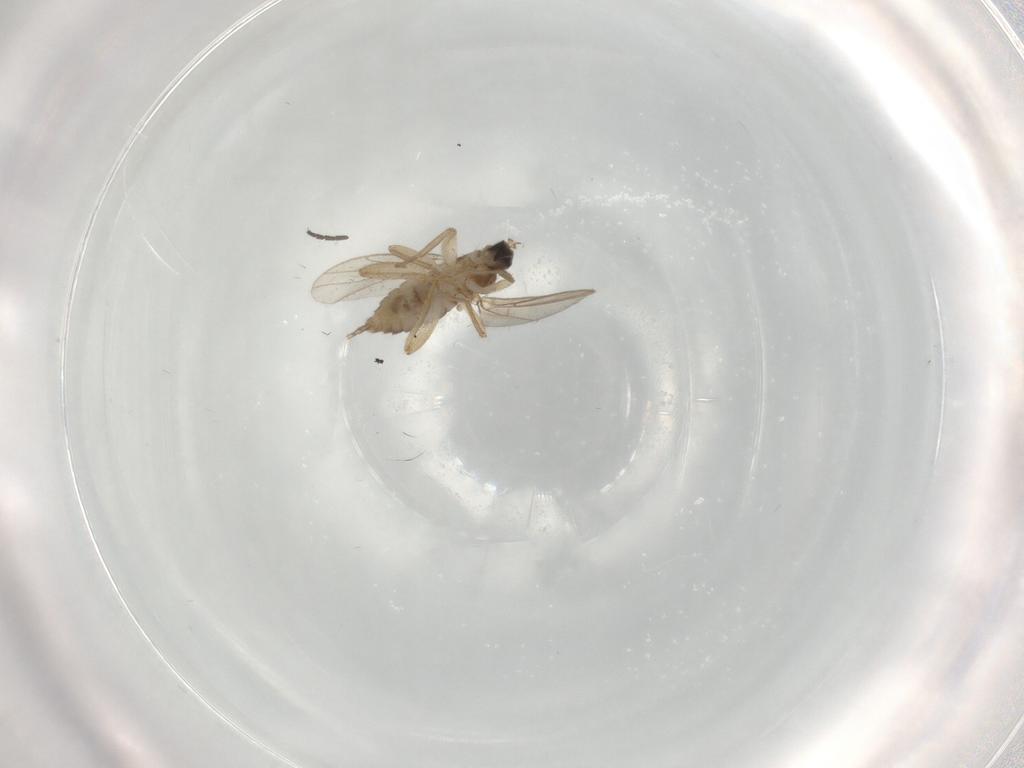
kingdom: Animalia
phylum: Arthropoda
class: Insecta
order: Diptera
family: Hybotidae
